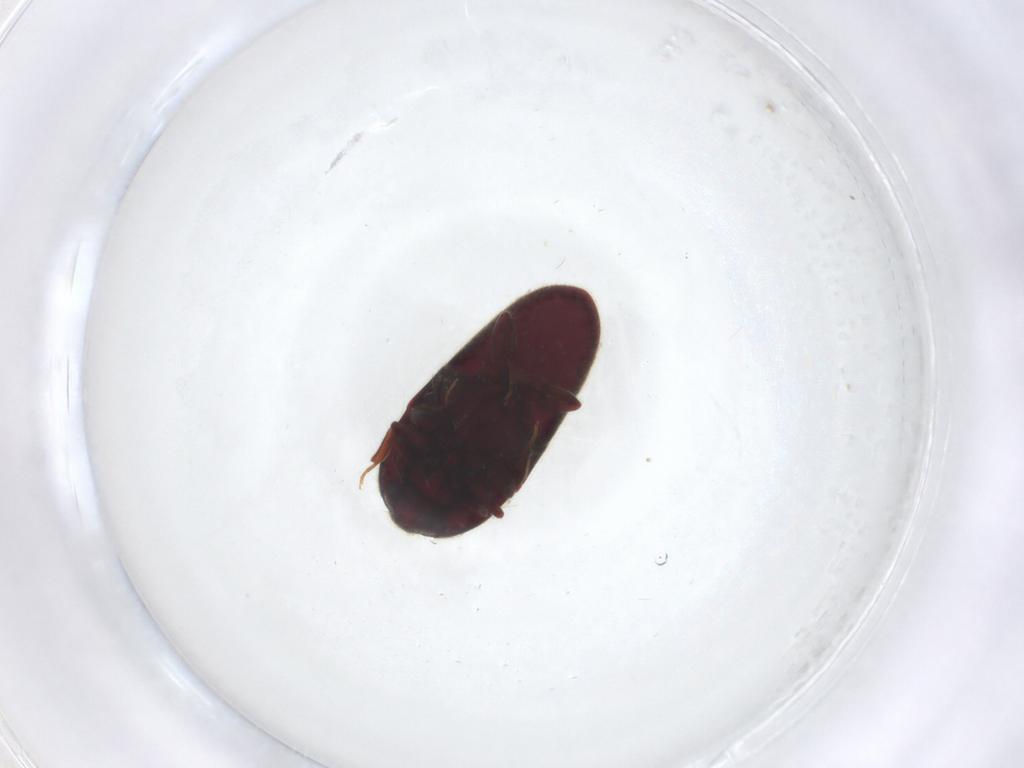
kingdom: Animalia
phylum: Arthropoda
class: Insecta
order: Coleoptera
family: Throscidae
